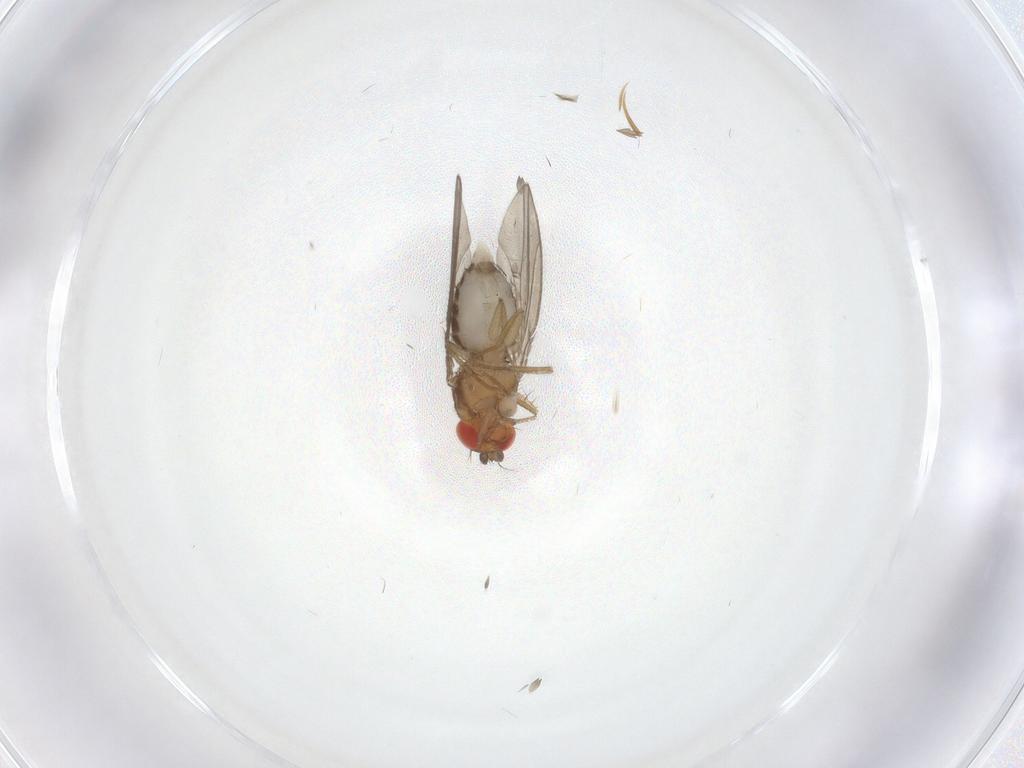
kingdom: Animalia
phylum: Arthropoda
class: Insecta
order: Diptera
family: Drosophilidae
